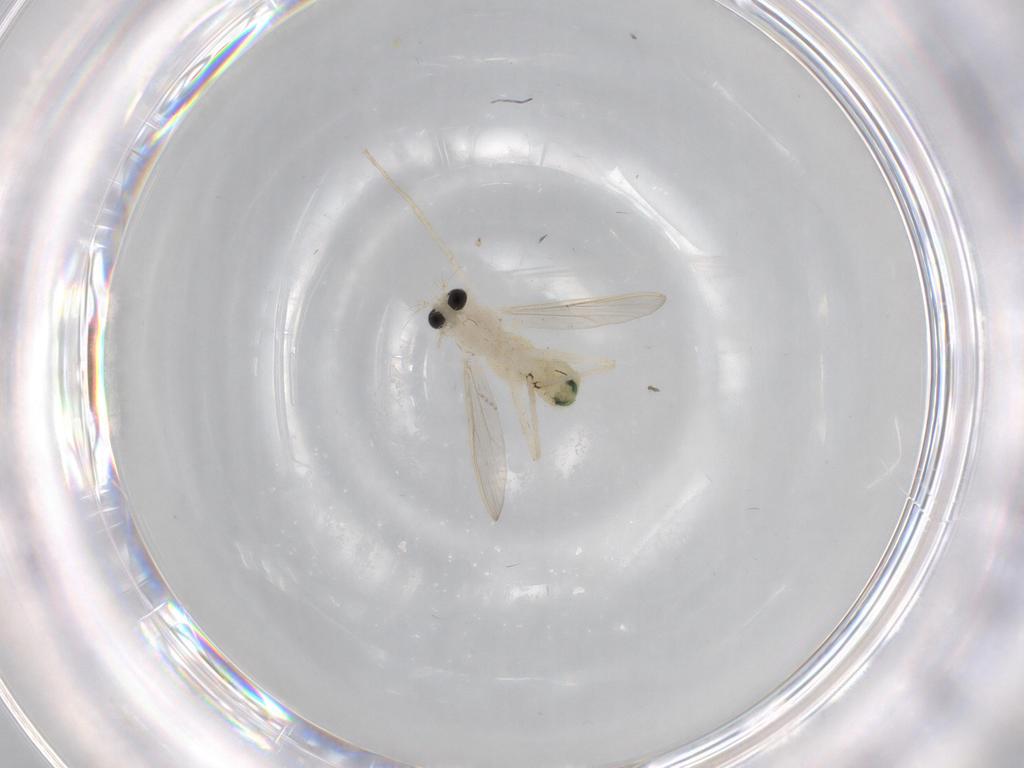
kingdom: Animalia
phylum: Arthropoda
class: Insecta
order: Diptera
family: Chironomidae
